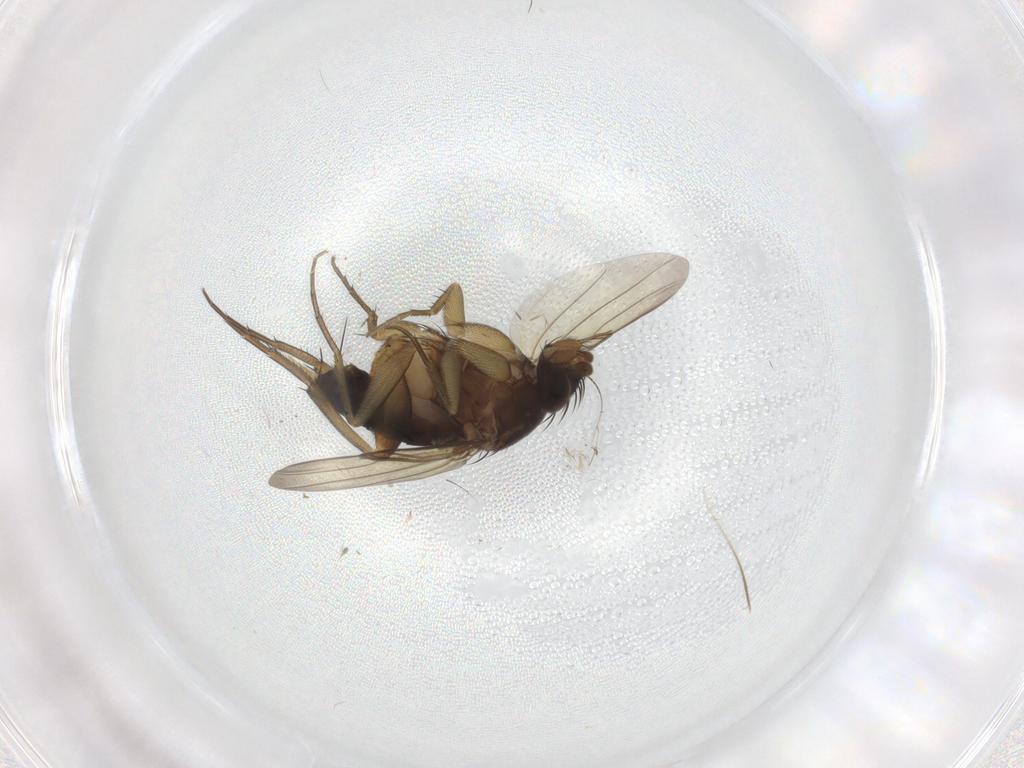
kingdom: Animalia
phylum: Arthropoda
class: Insecta
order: Diptera
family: Phoridae
